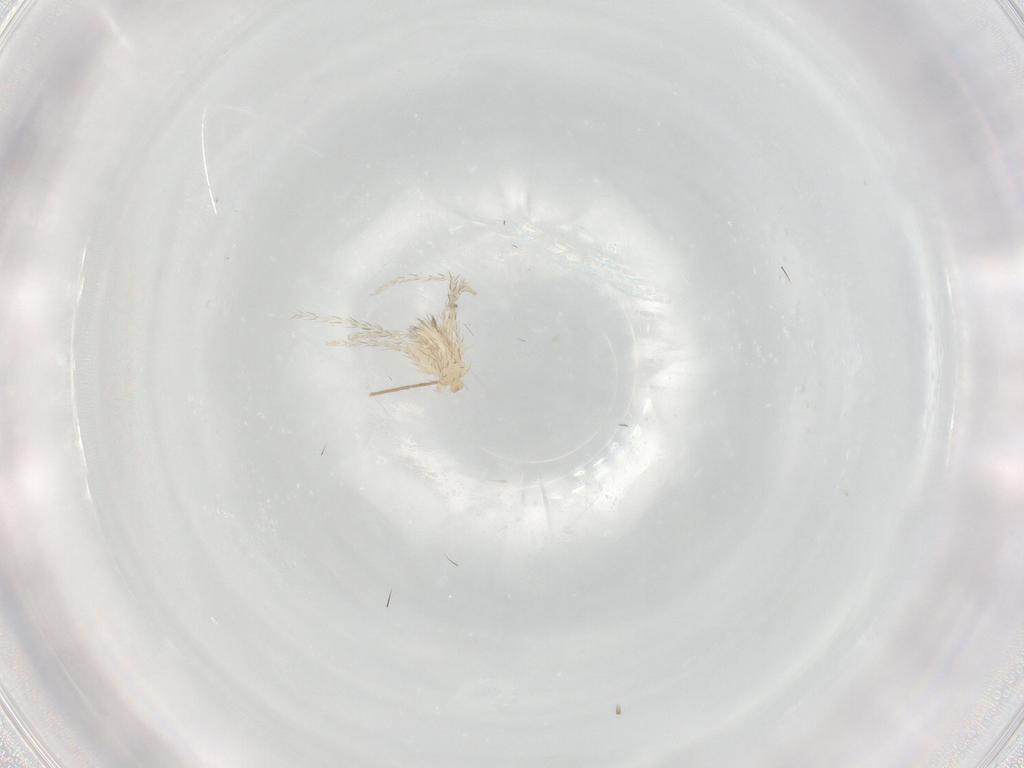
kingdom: Animalia
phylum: Arthropoda
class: Arachnida
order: Trombidiformes
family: Erythraeidae
